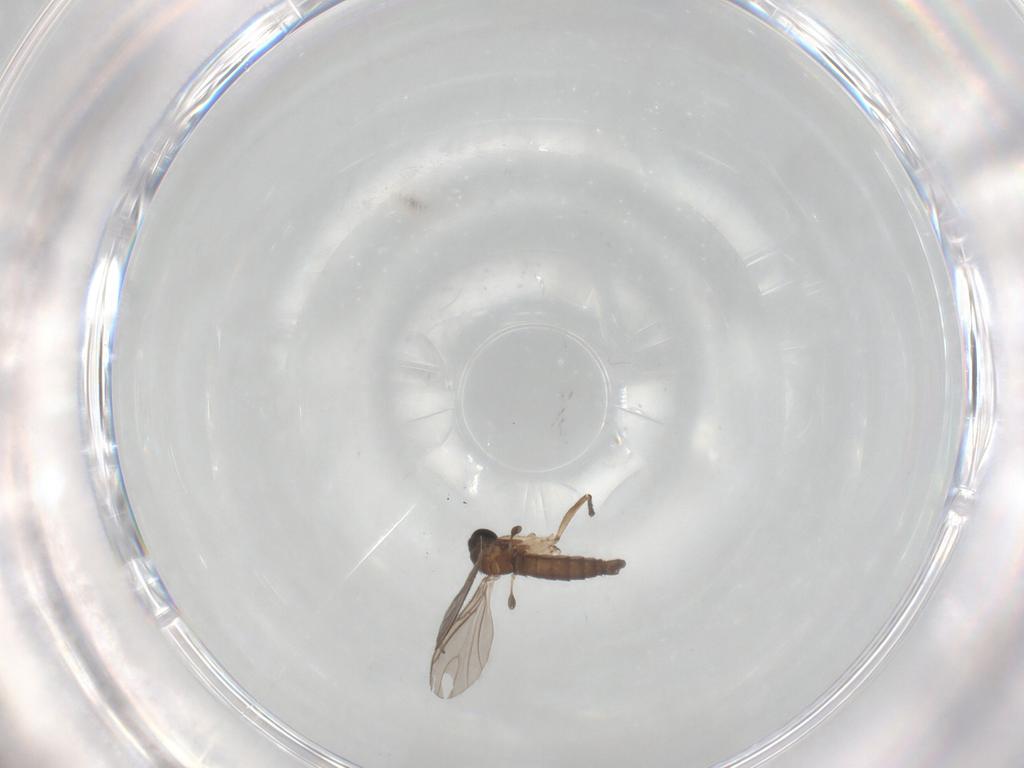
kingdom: Animalia
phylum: Arthropoda
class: Insecta
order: Diptera
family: Sciaridae
